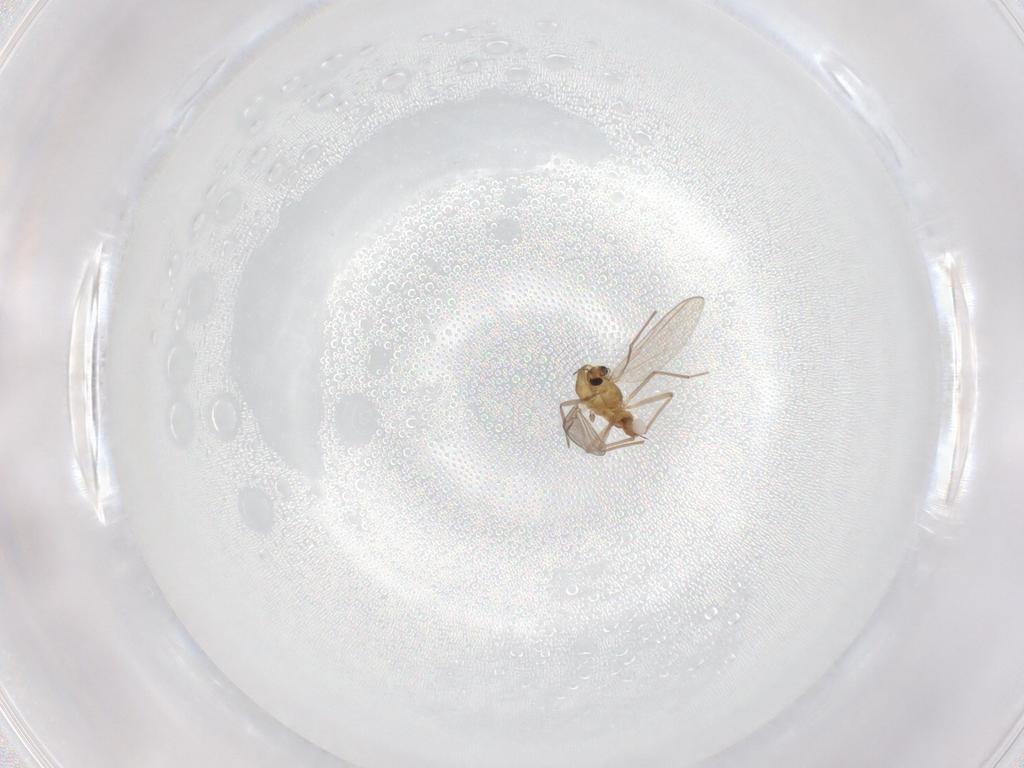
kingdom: Animalia
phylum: Arthropoda
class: Insecta
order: Diptera
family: Chironomidae
